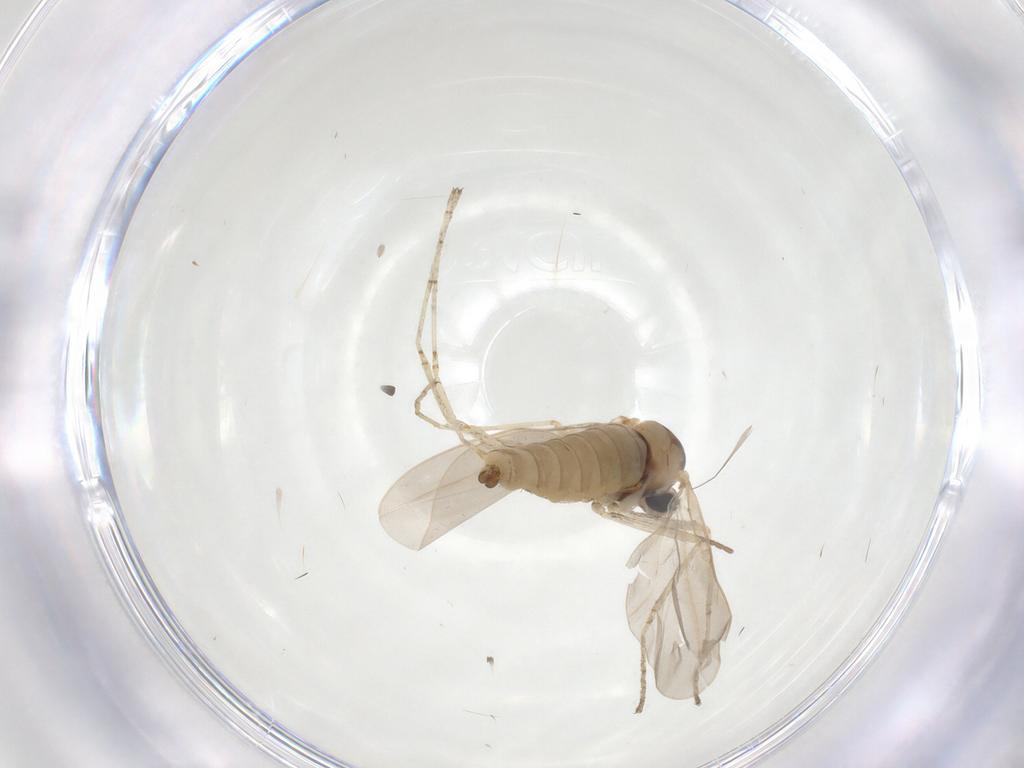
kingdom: Animalia
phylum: Arthropoda
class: Insecta
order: Diptera
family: Cecidomyiidae
